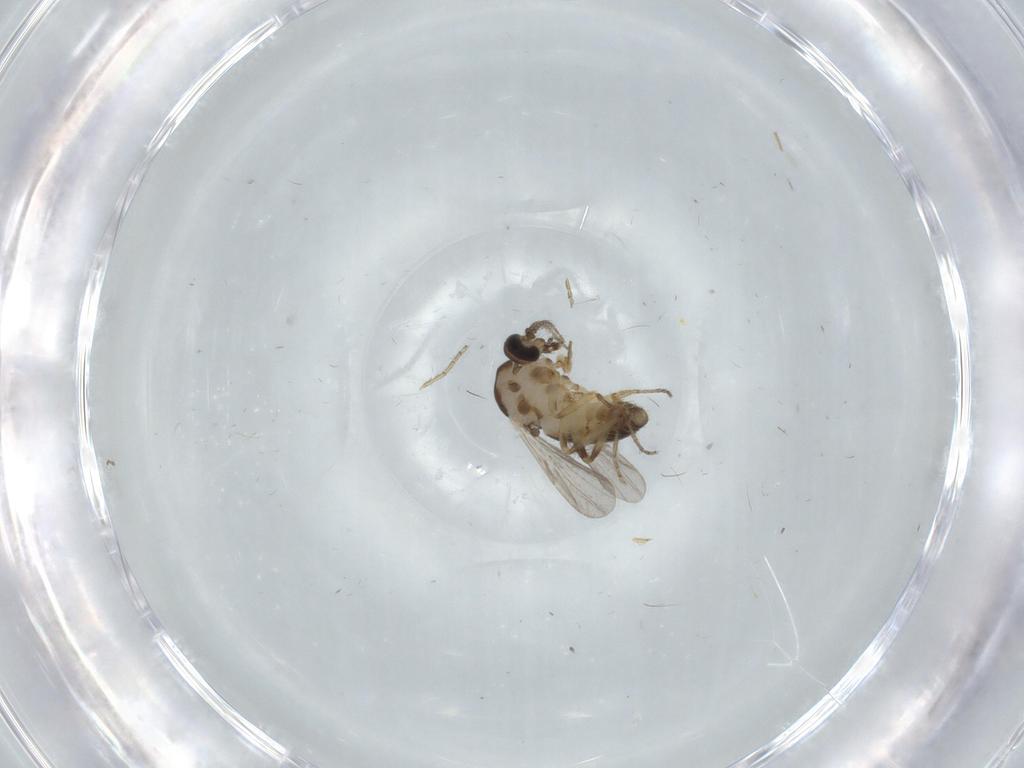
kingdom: Animalia
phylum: Arthropoda
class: Insecta
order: Diptera
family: Ceratopogonidae
